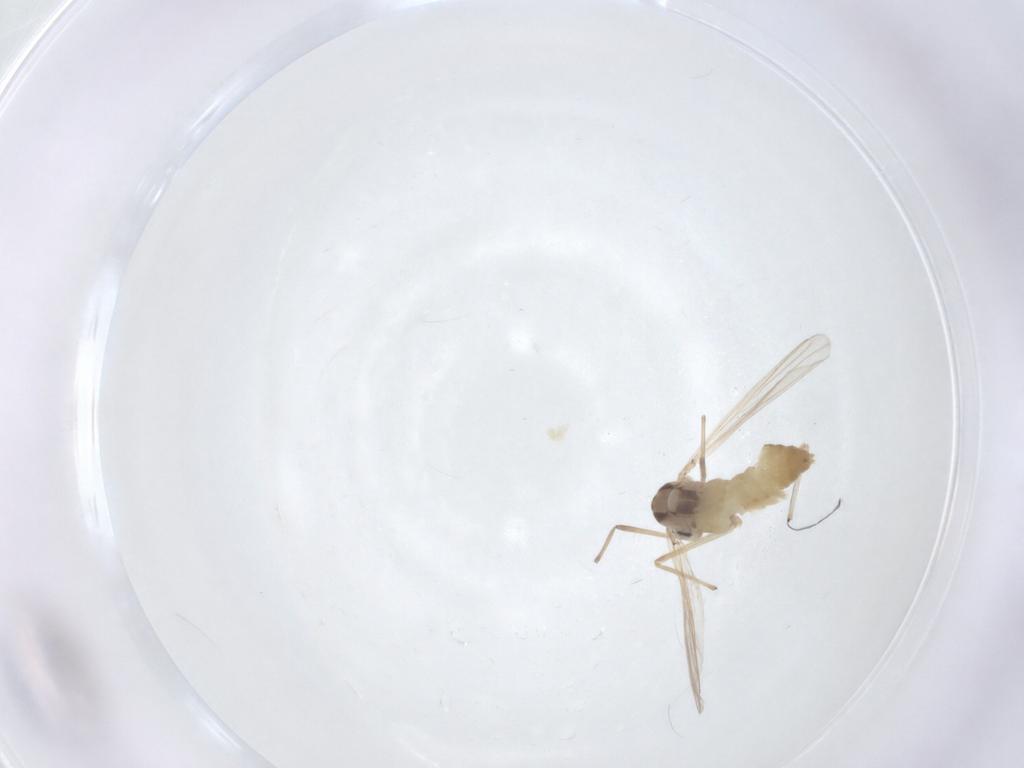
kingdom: Animalia
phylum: Arthropoda
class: Insecta
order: Diptera
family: Chironomidae
